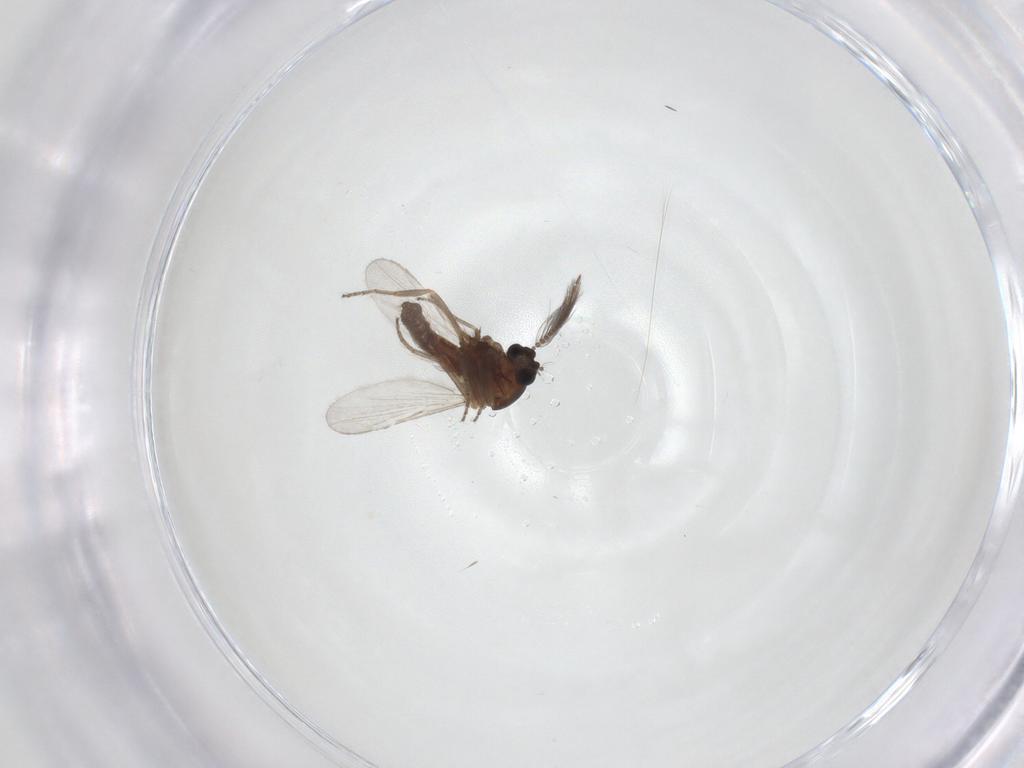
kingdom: Animalia
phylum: Arthropoda
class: Insecta
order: Diptera
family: Ceratopogonidae
